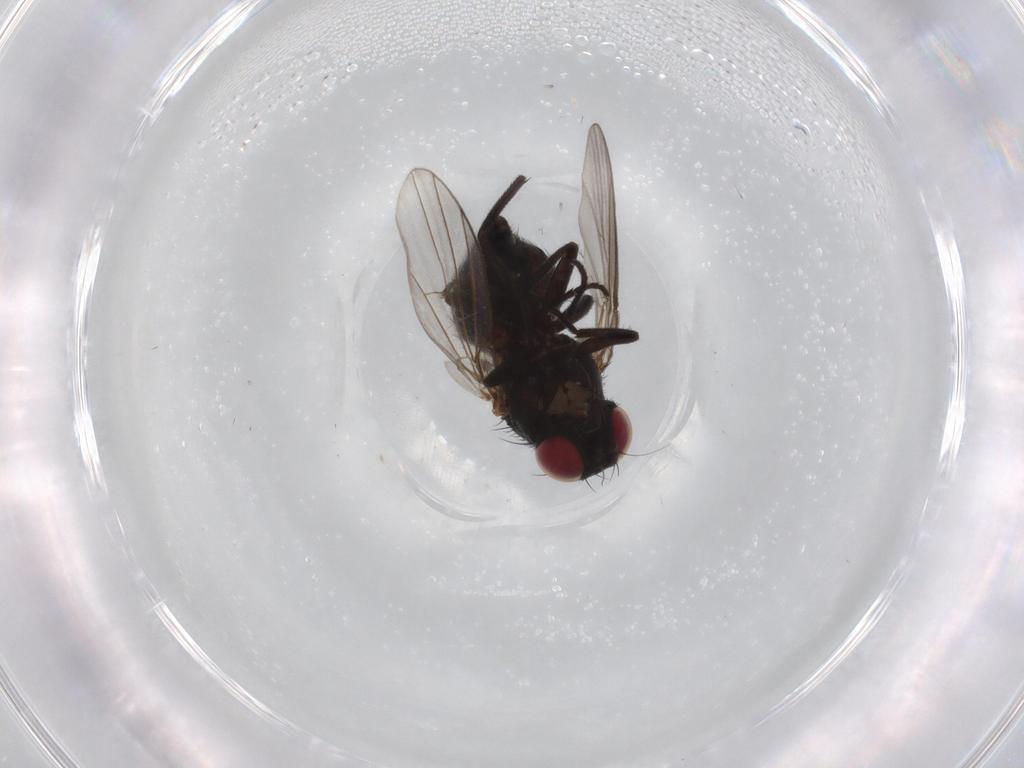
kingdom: Animalia
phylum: Arthropoda
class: Insecta
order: Diptera
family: Agromyzidae
